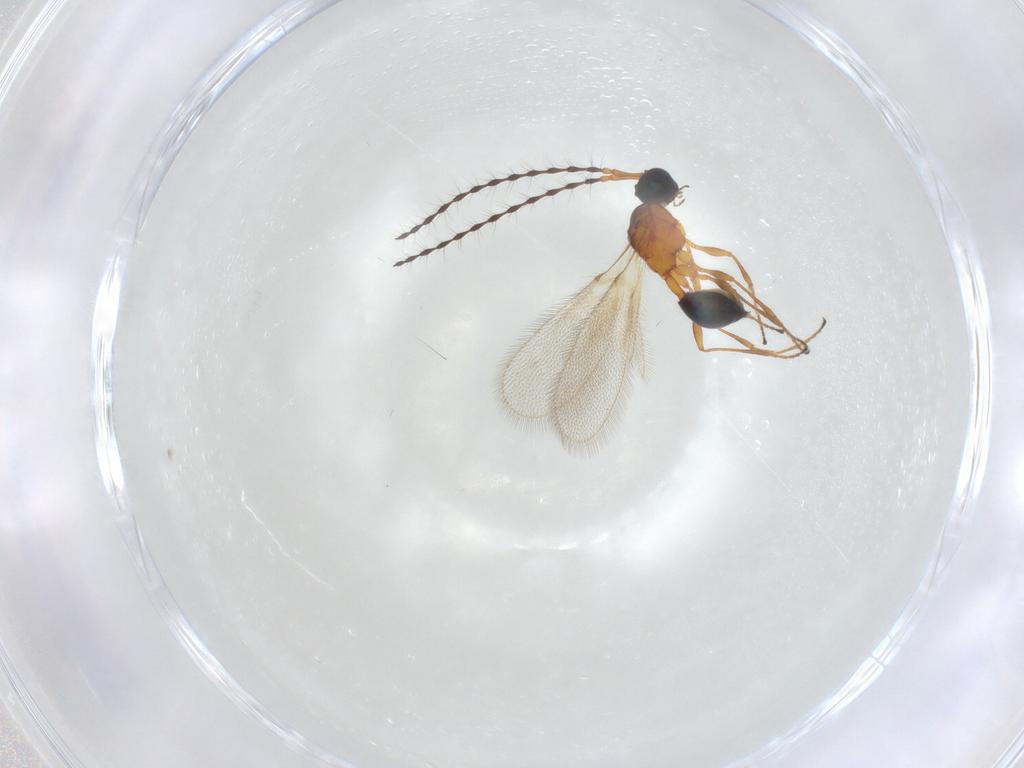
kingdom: Animalia
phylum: Arthropoda
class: Insecta
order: Hymenoptera
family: Diapriidae
